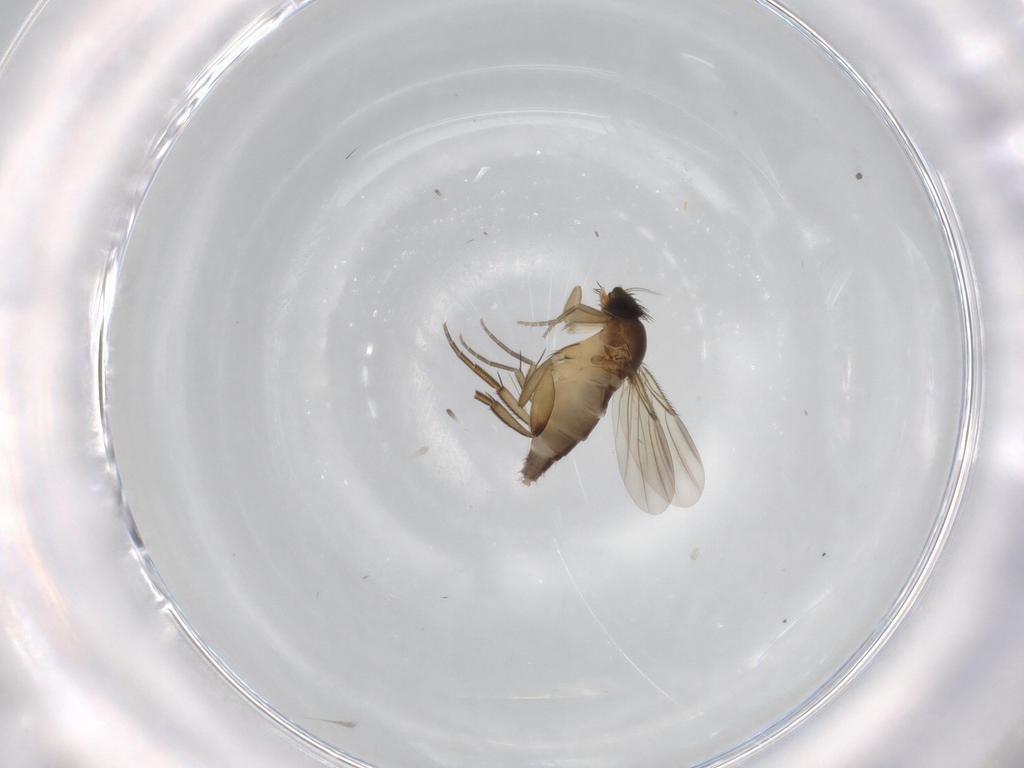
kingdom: Animalia
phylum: Arthropoda
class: Insecta
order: Diptera
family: Phoridae
